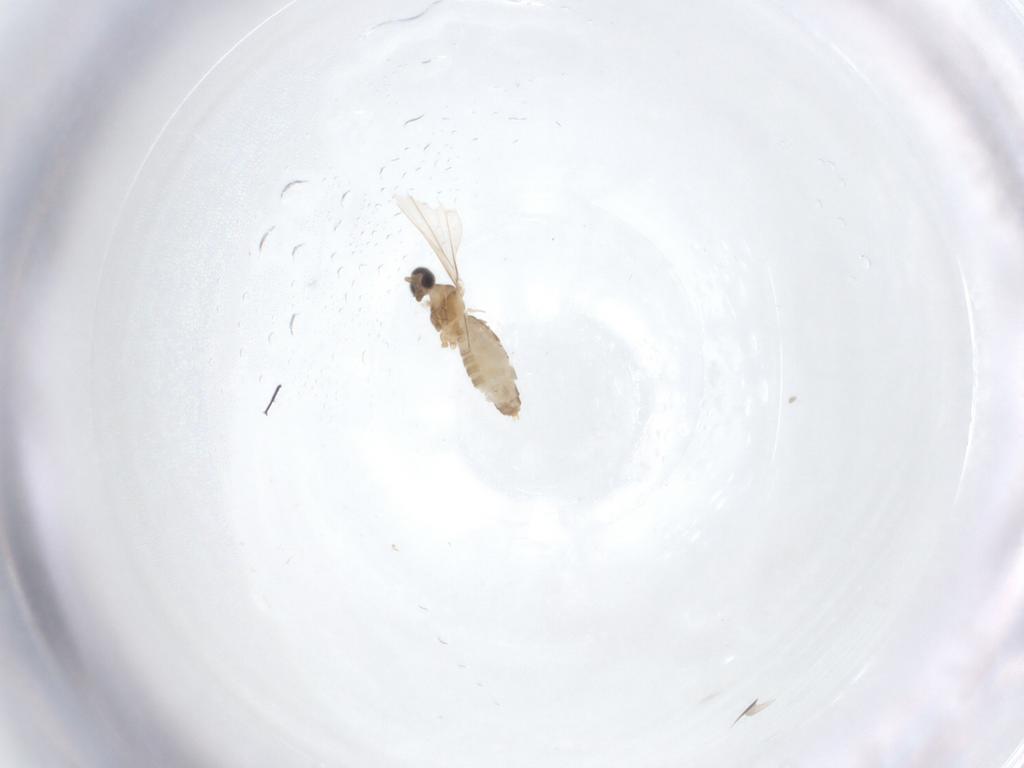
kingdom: Animalia
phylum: Arthropoda
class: Insecta
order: Diptera
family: Cecidomyiidae
